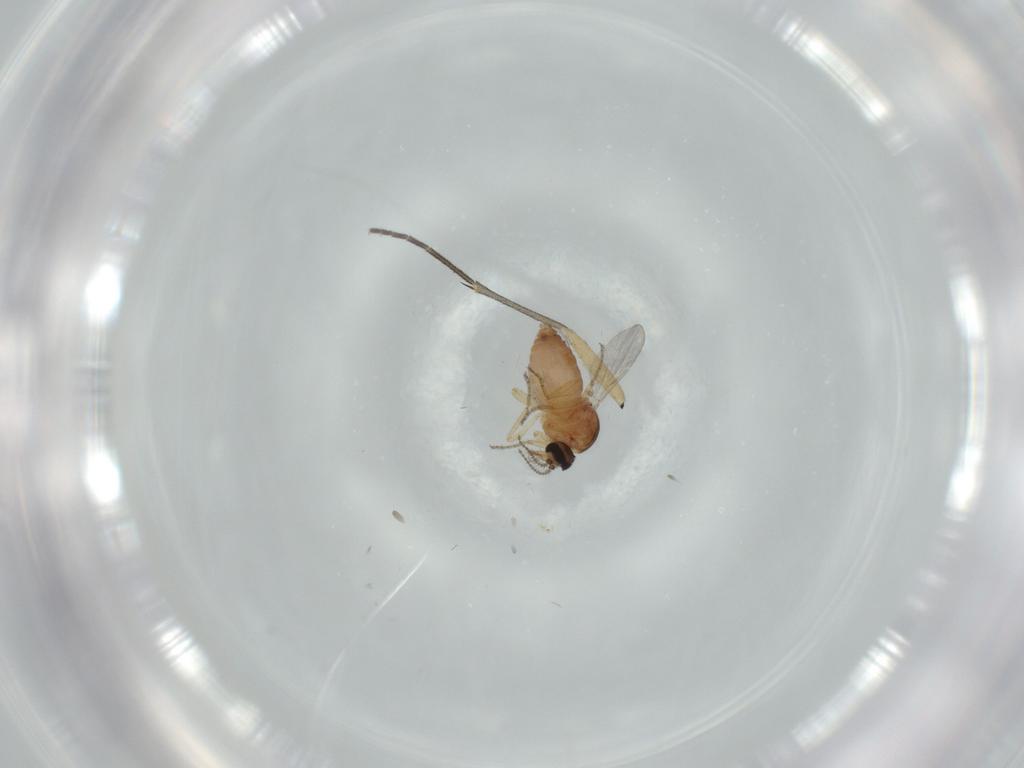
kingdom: Animalia
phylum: Arthropoda
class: Insecta
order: Diptera
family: Ceratopogonidae
